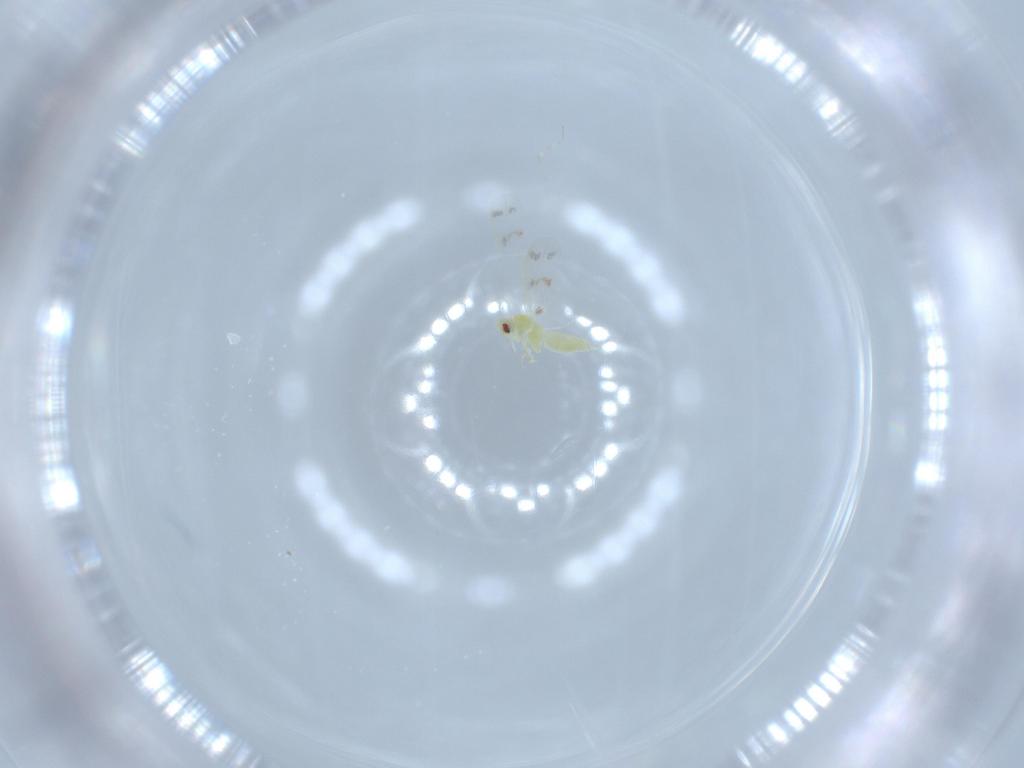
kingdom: Animalia
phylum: Arthropoda
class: Insecta
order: Hemiptera
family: Aleyrodidae
